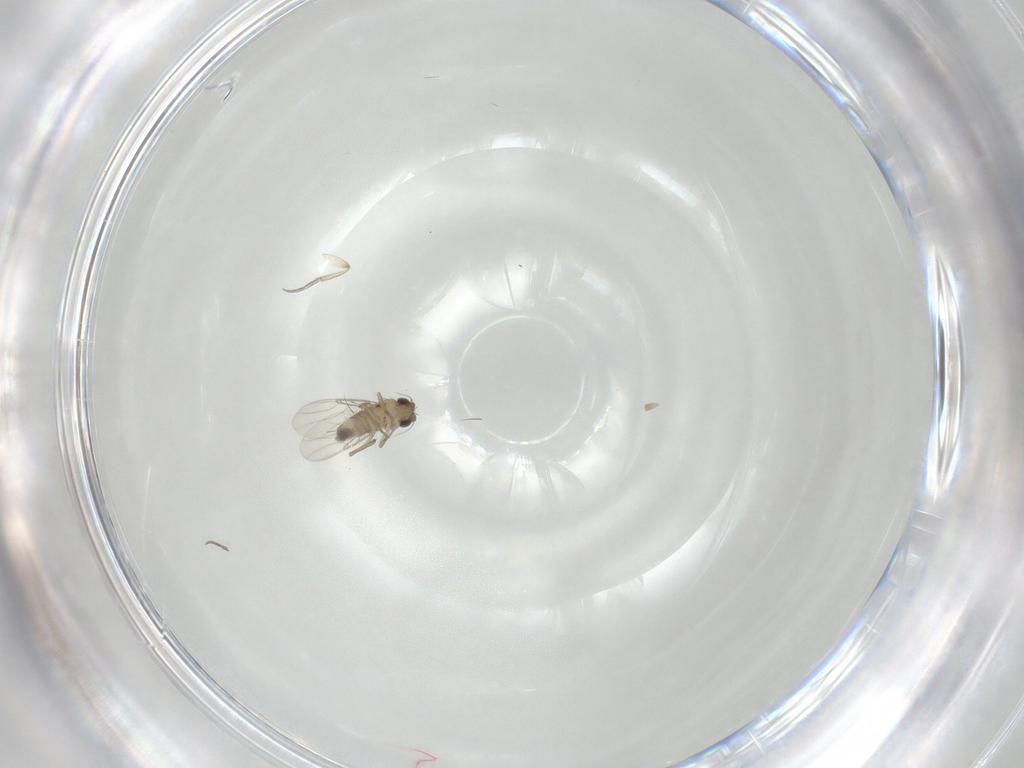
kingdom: Animalia
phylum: Arthropoda
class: Insecta
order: Diptera
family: Phoridae
